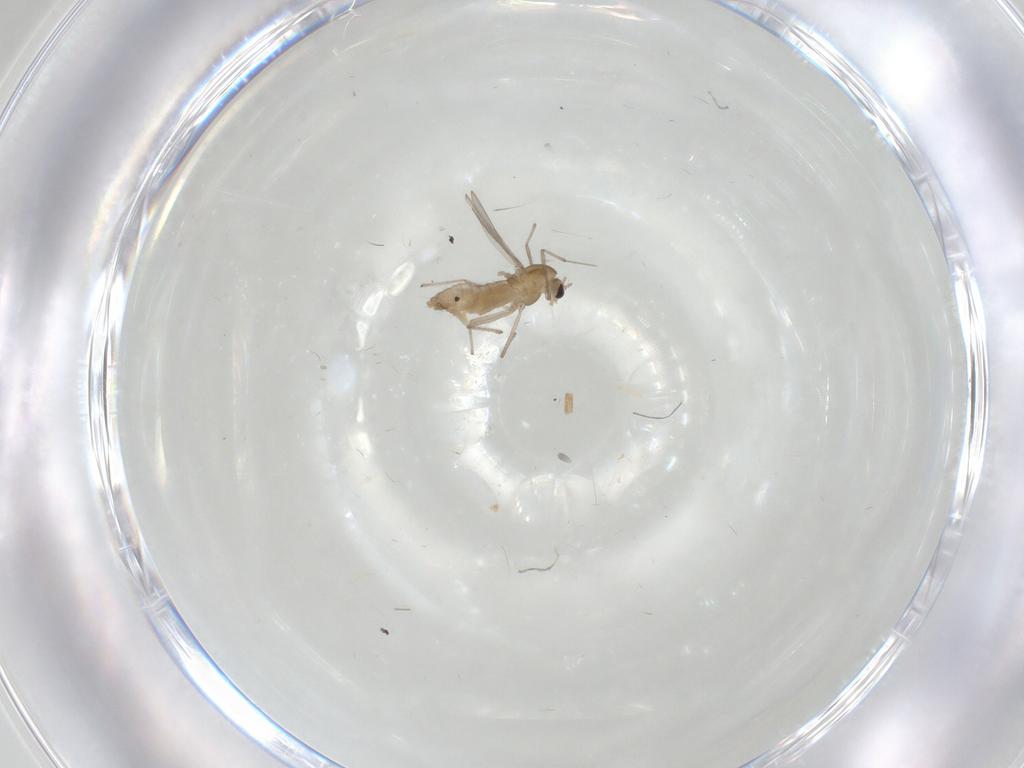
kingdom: Animalia
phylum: Arthropoda
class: Insecta
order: Diptera
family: Chironomidae
